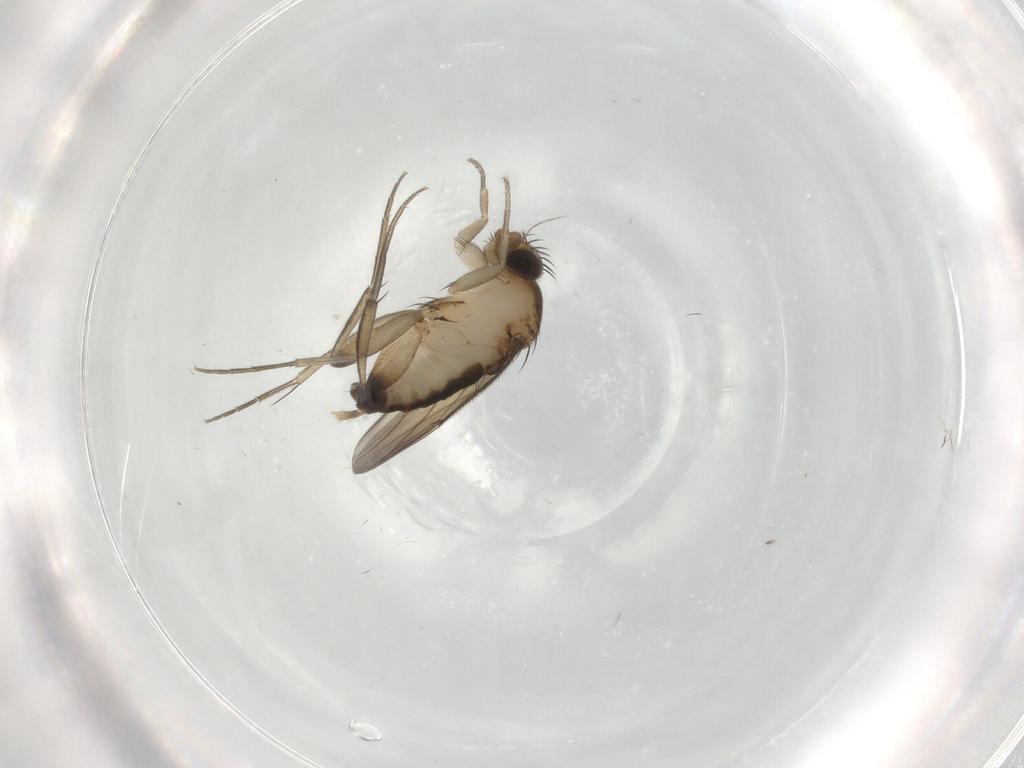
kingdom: Animalia
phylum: Arthropoda
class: Insecta
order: Diptera
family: Phoridae
